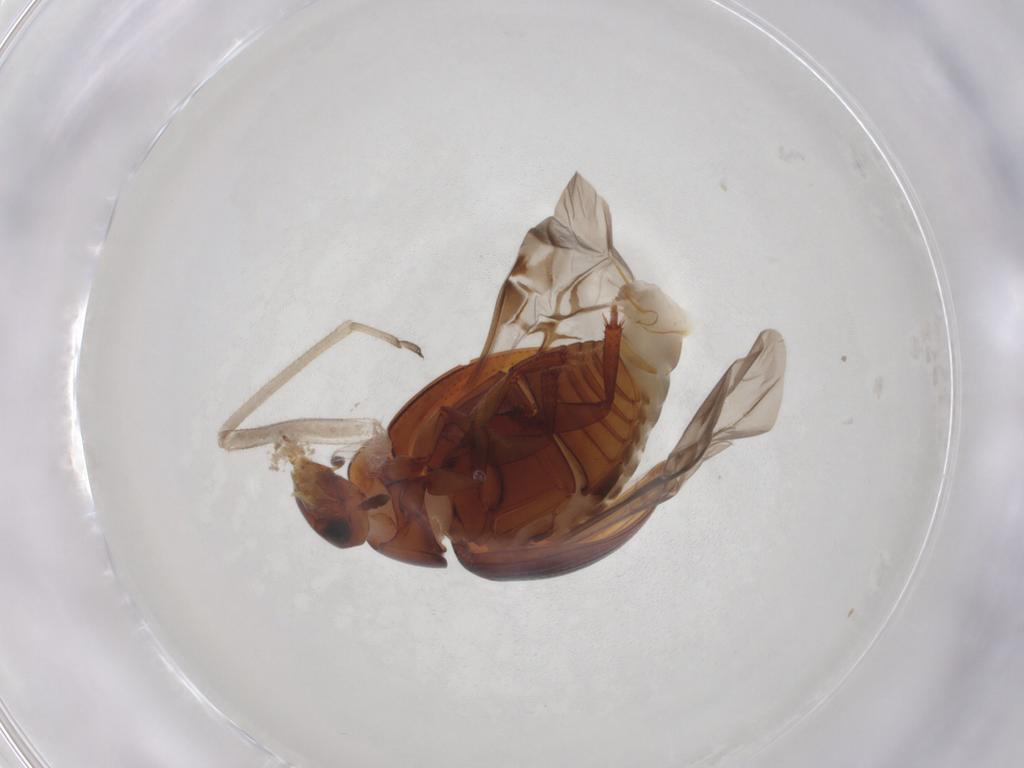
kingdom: Animalia
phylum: Arthropoda
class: Insecta
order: Coleoptera
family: Hydrophilidae
